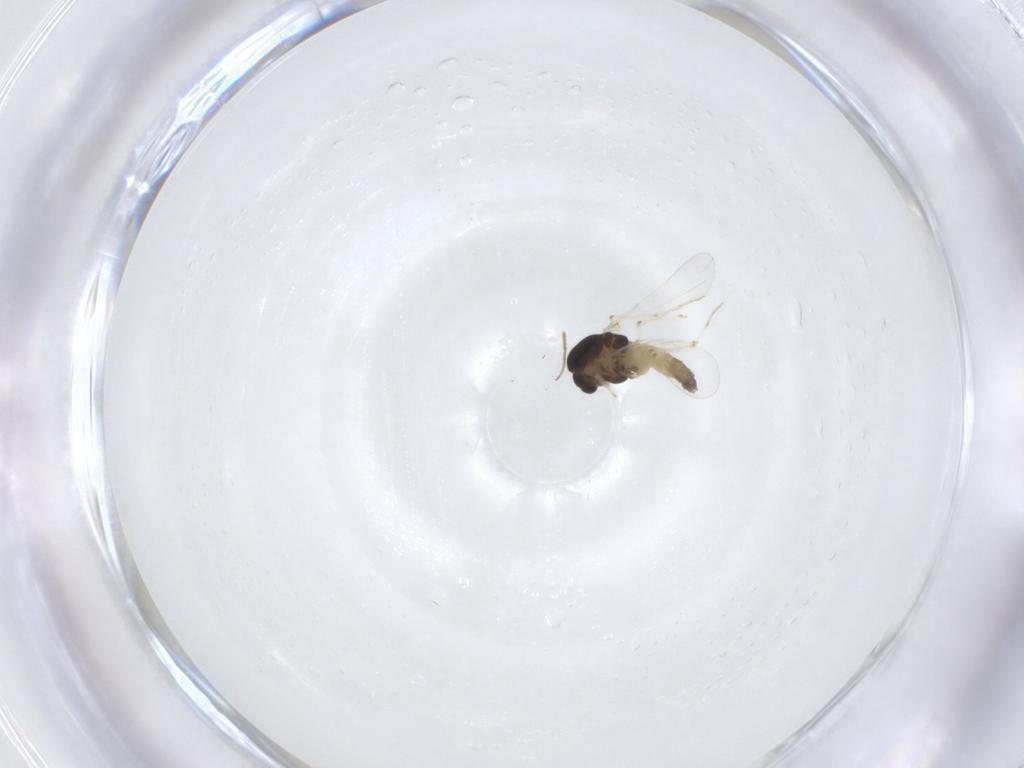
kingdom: Animalia
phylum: Arthropoda
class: Insecta
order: Diptera
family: Chironomidae
